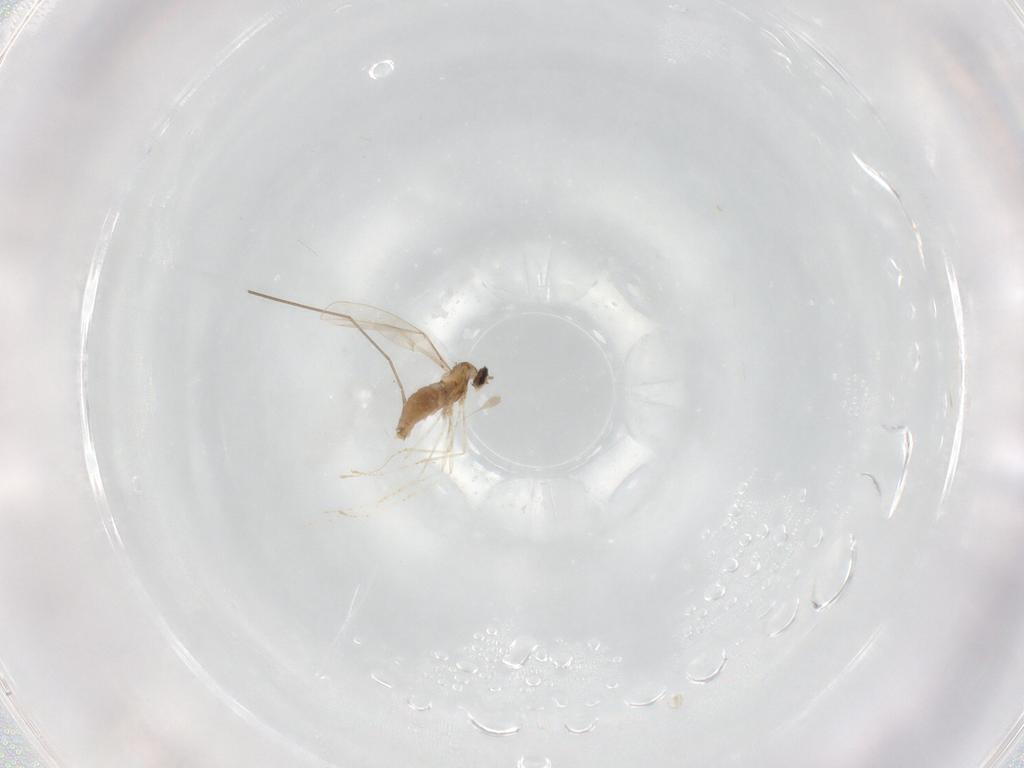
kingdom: Animalia
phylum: Arthropoda
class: Insecta
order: Diptera
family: Cecidomyiidae
